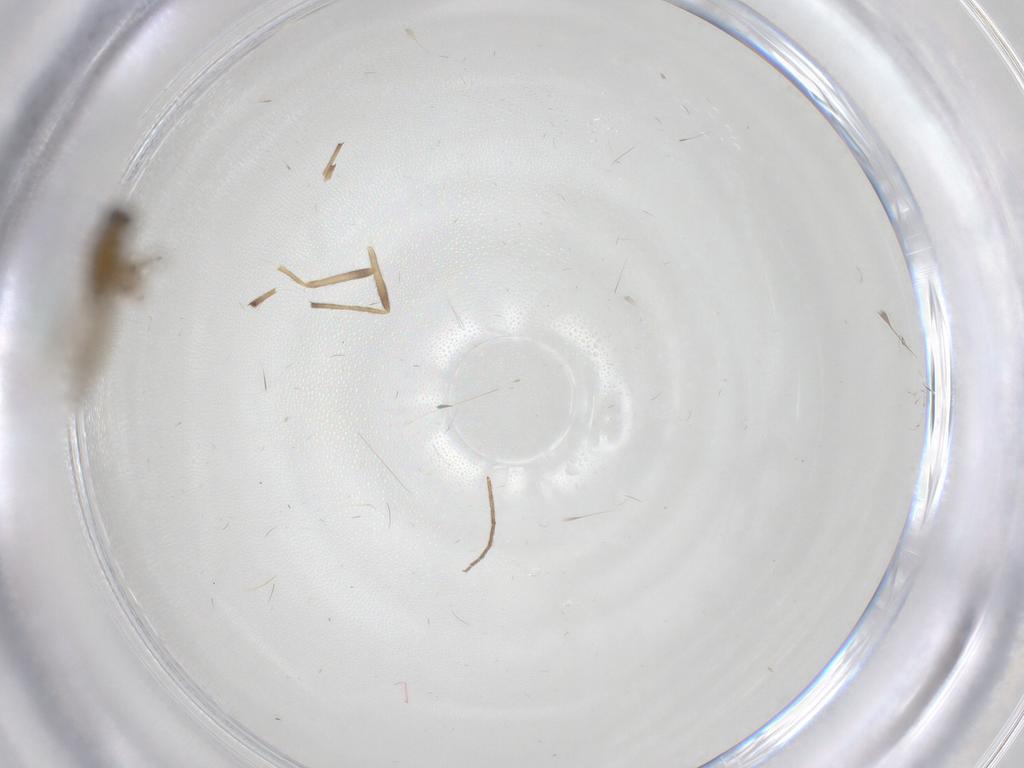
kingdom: Animalia
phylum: Arthropoda
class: Insecta
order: Diptera
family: Chironomidae
